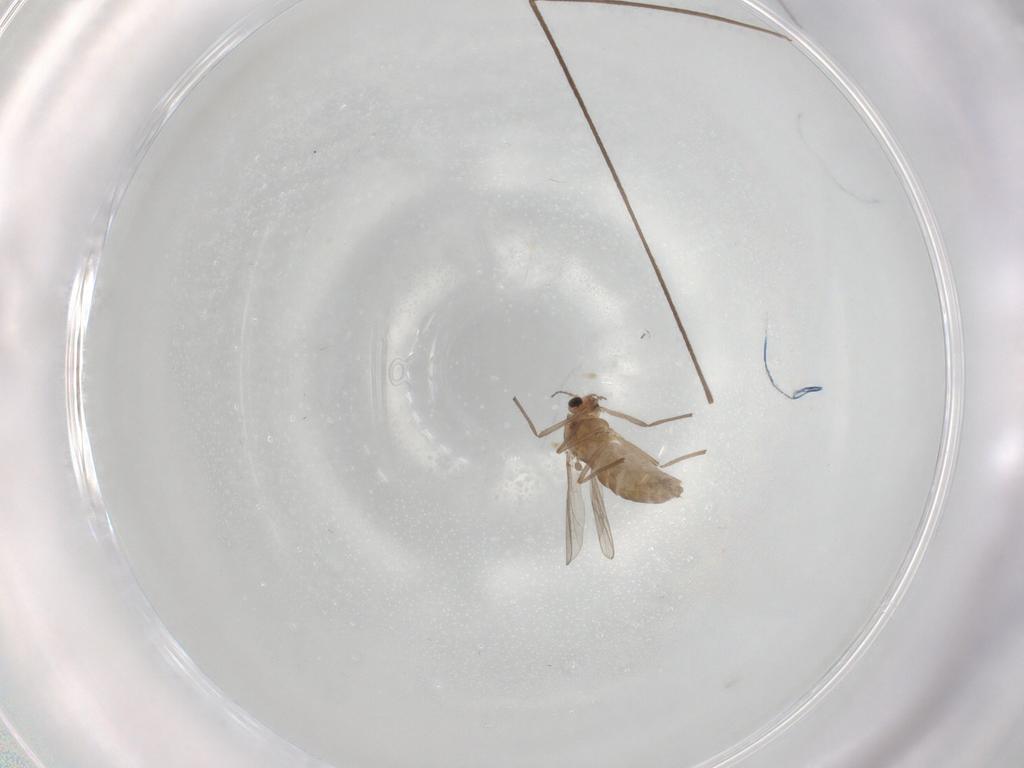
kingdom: Animalia
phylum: Arthropoda
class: Insecta
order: Diptera
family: Chironomidae
